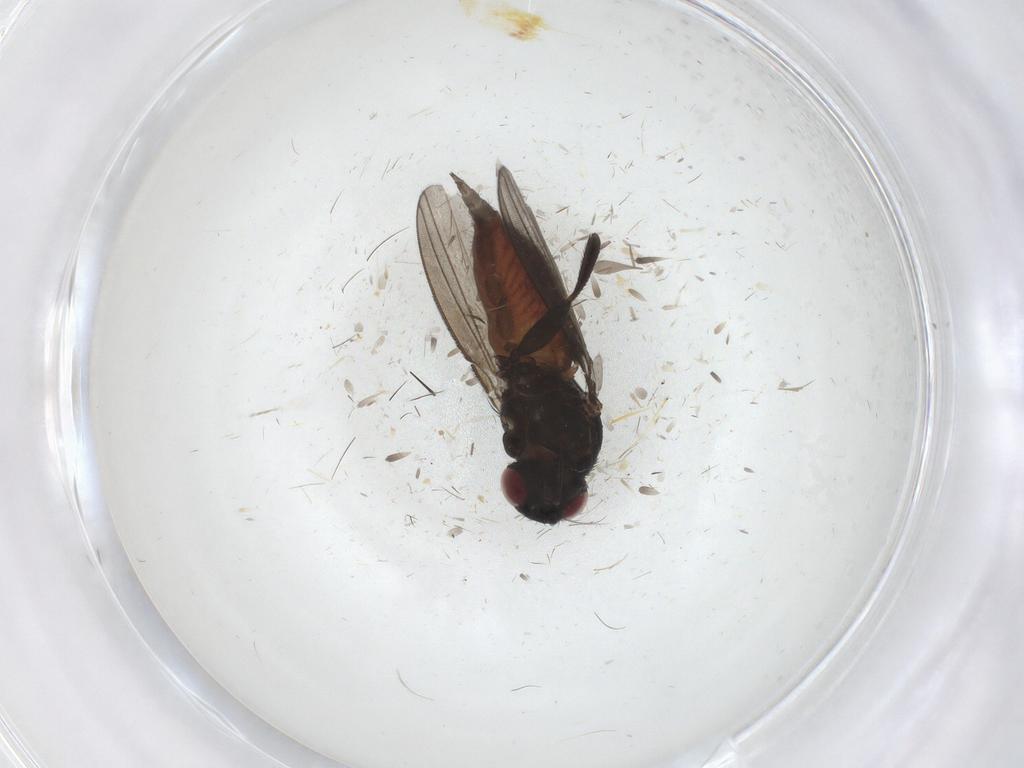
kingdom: Animalia
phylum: Arthropoda
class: Insecta
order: Diptera
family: Milichiidae
